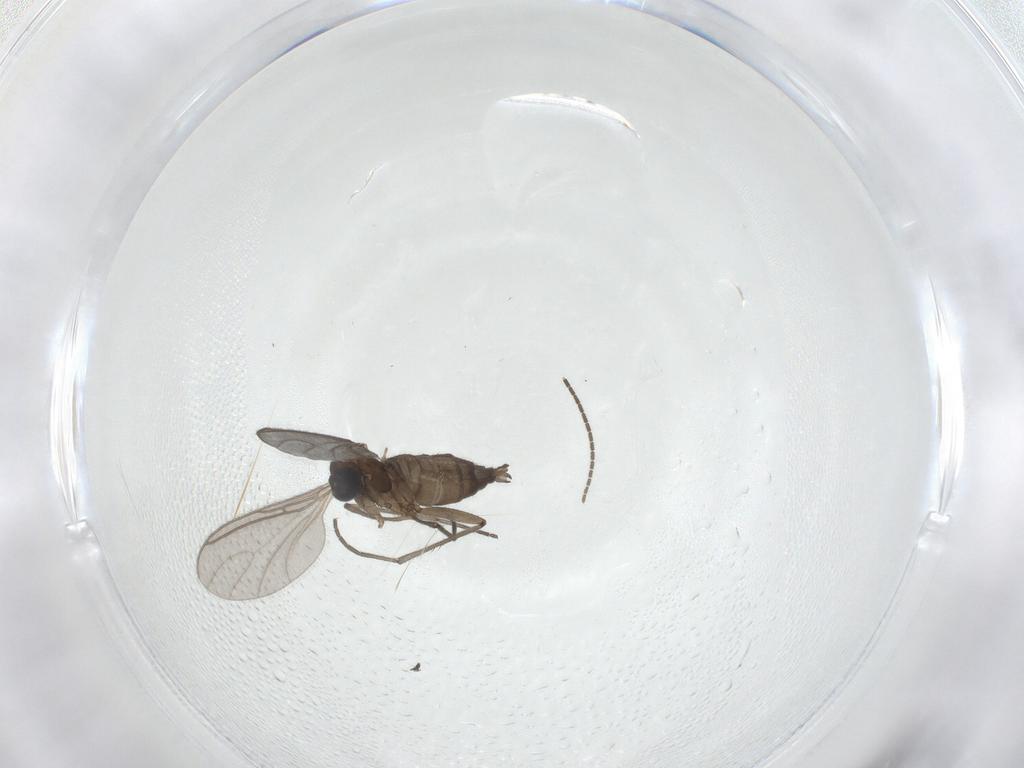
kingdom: Animalia
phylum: Arthropoda
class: Insecta
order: Diptera
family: Sciaridae
